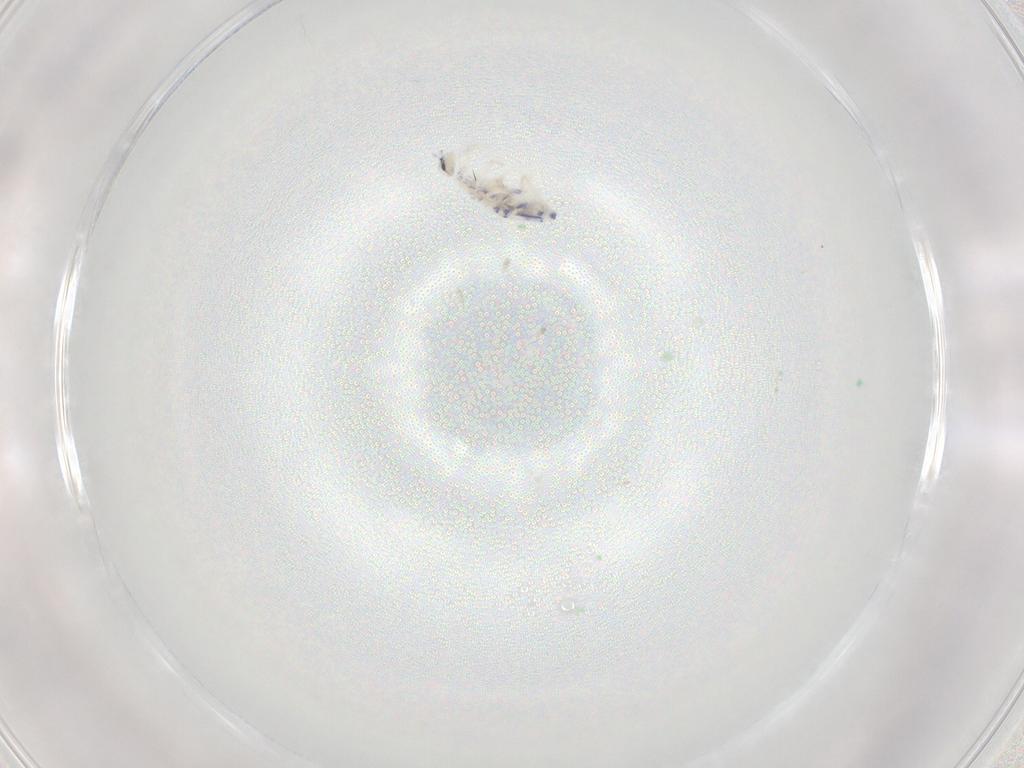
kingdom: Animalia
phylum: Arthropoda
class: Collembola
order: Entomobryomorpha
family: Entomobryidae
